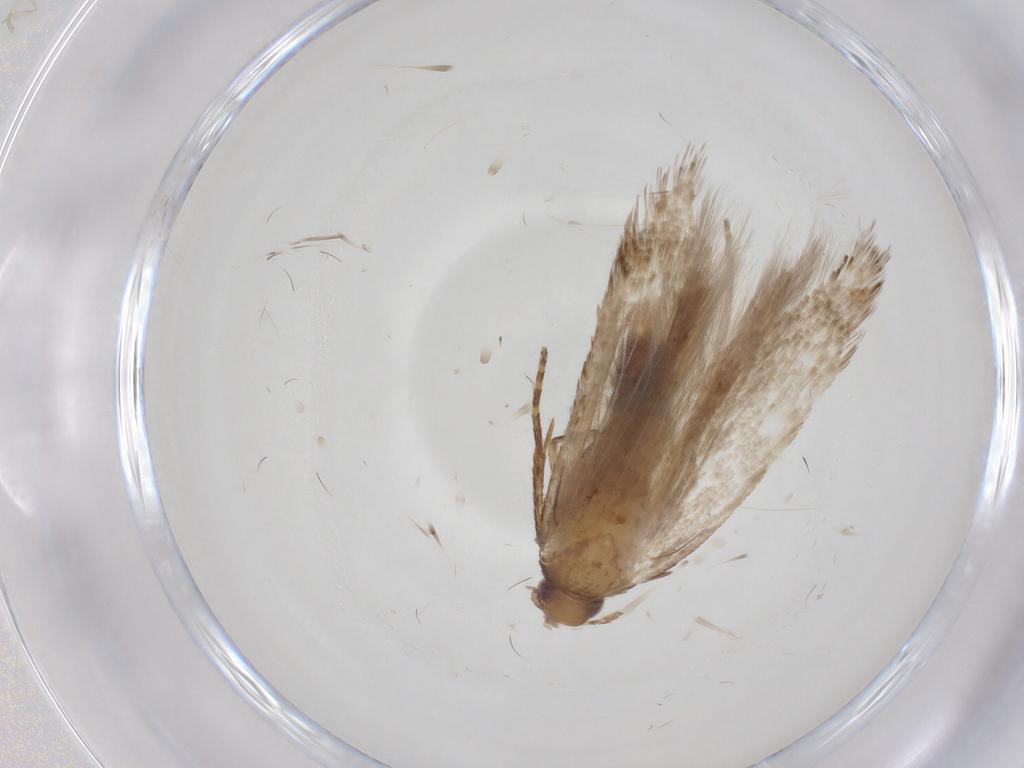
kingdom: Animalia
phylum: Arthropoda
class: Insecta
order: Lepidoptera
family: Gelechiidae
